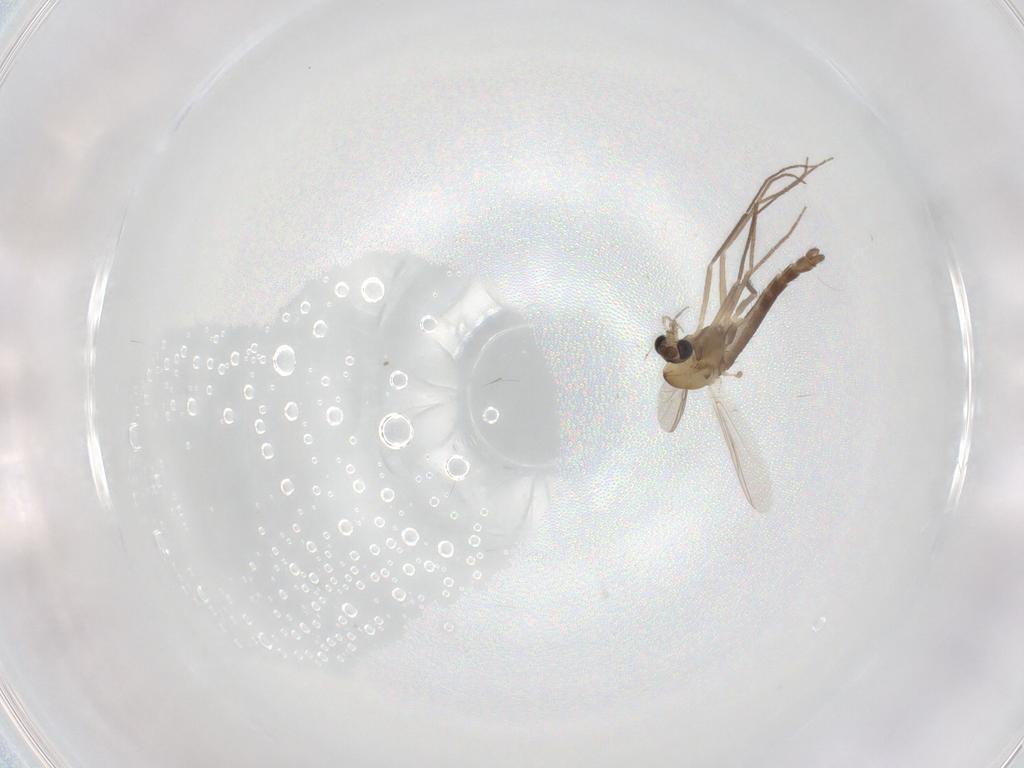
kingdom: Animalia
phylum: Arthropoda
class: Insecta
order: Diptera
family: Chironomidae
